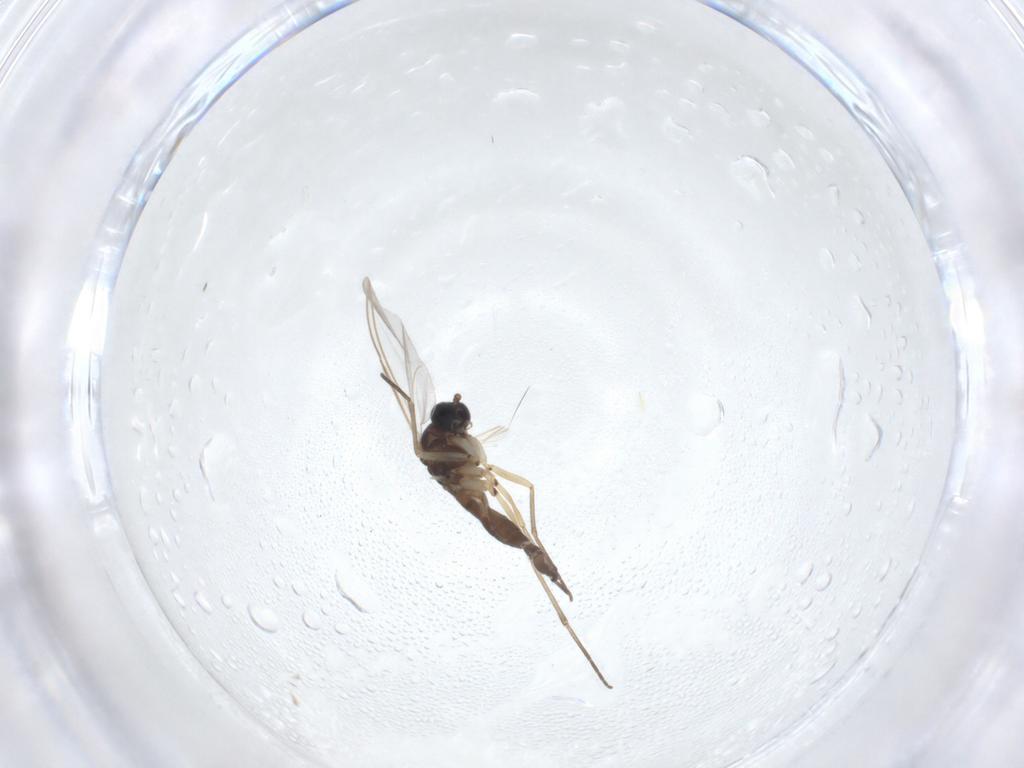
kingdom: Animalia
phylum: Arthropoda
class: Insecta
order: Diptera
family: Sciaridae
